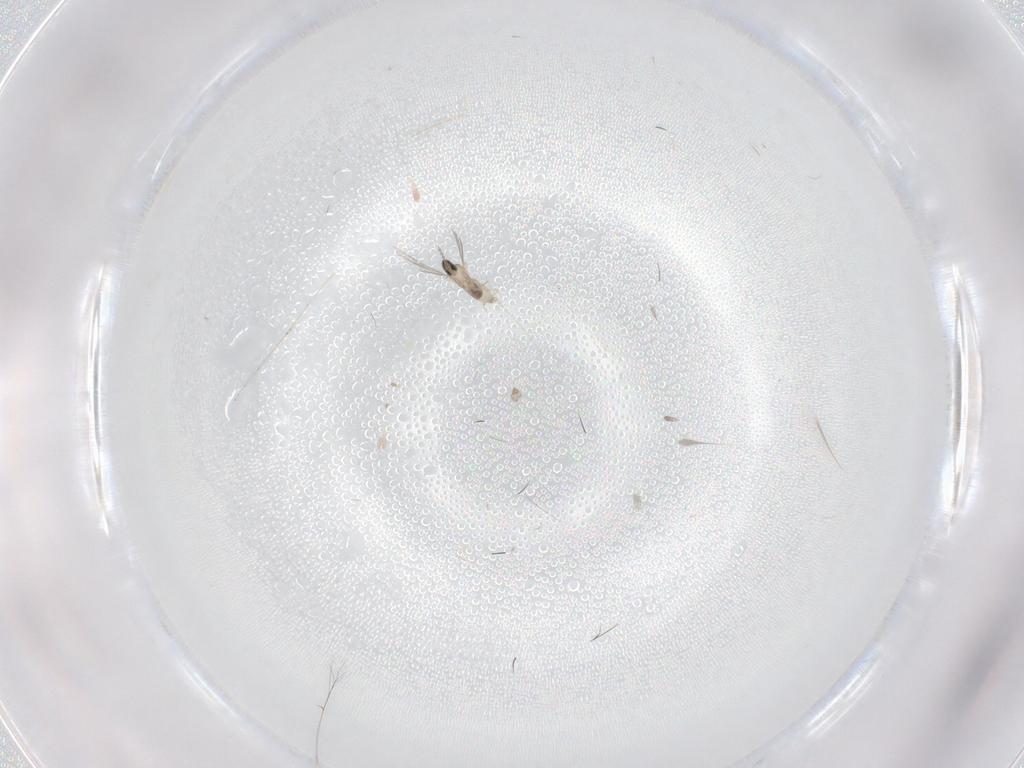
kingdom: Animalia
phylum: Arthropoda
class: Insecta
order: Diptera
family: Cecidomyiidae
